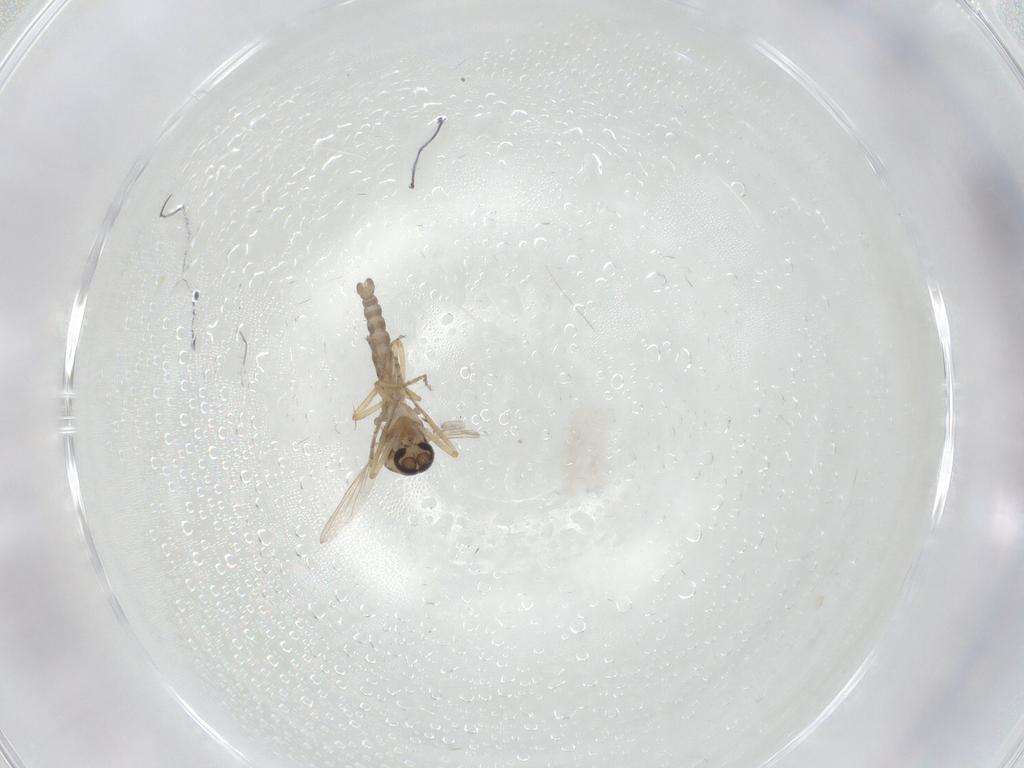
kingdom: Animalia
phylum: Arthropoda
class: Insecta
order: Diptera
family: Ceratopogonidae
